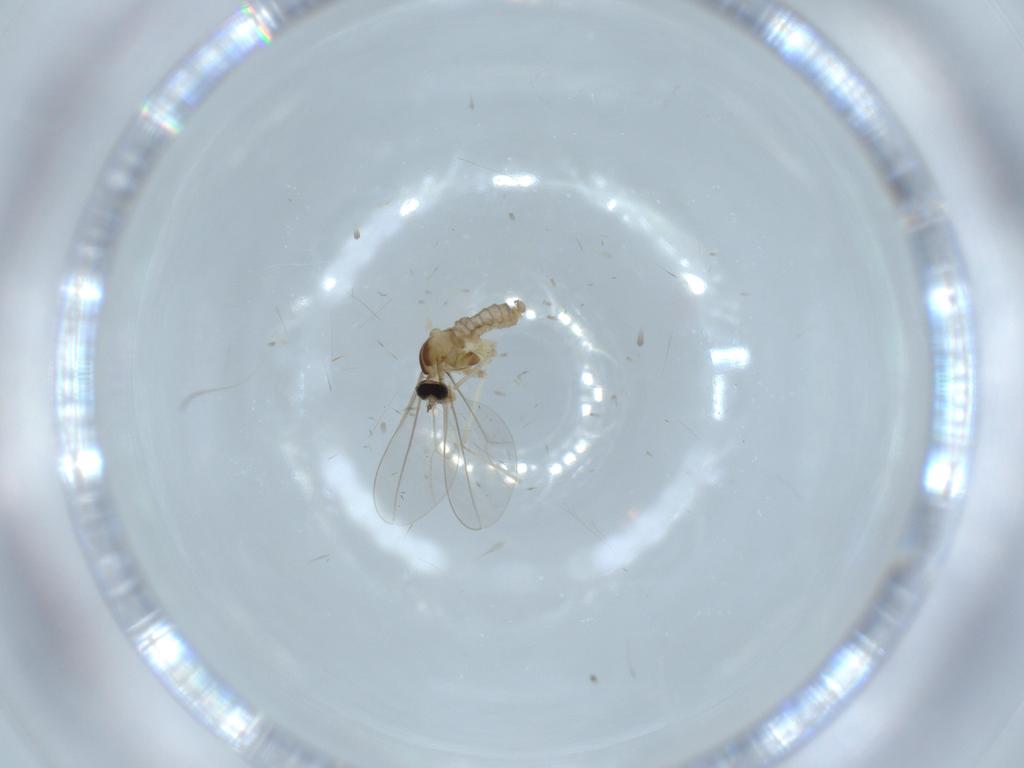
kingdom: Animalia
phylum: Arthropoda
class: Insecta
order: Diptera
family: Cecidomyiidae
